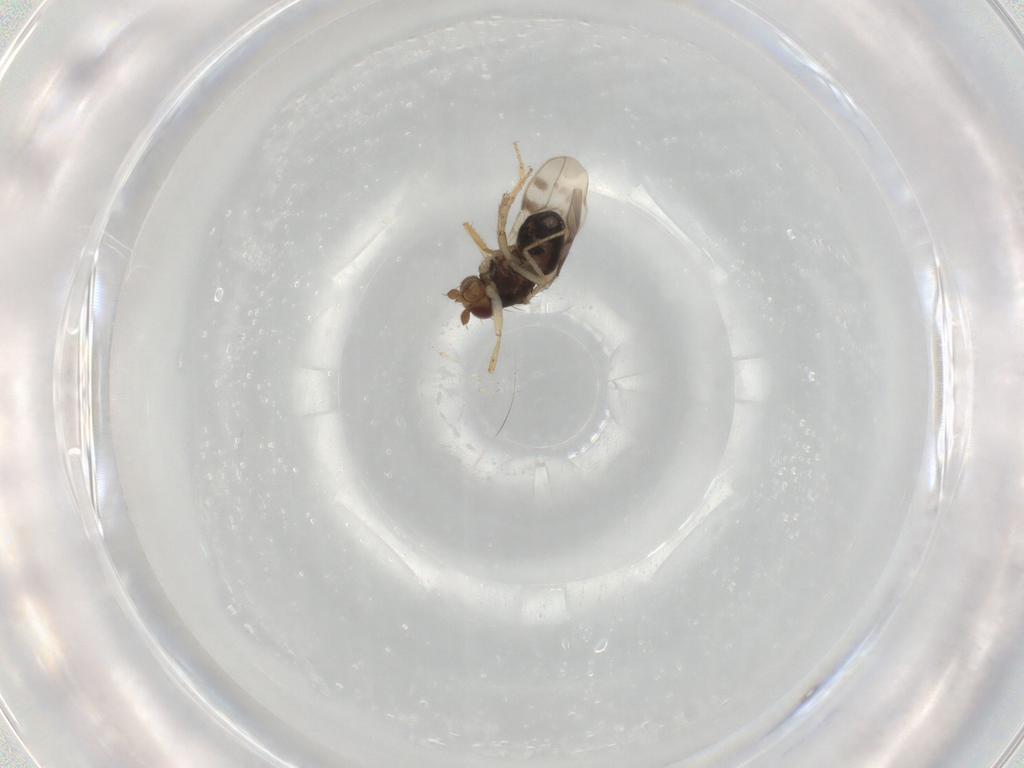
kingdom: Animalia
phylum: Arthropoda
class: Insecta
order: Diptera
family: Sphaeroceridae
